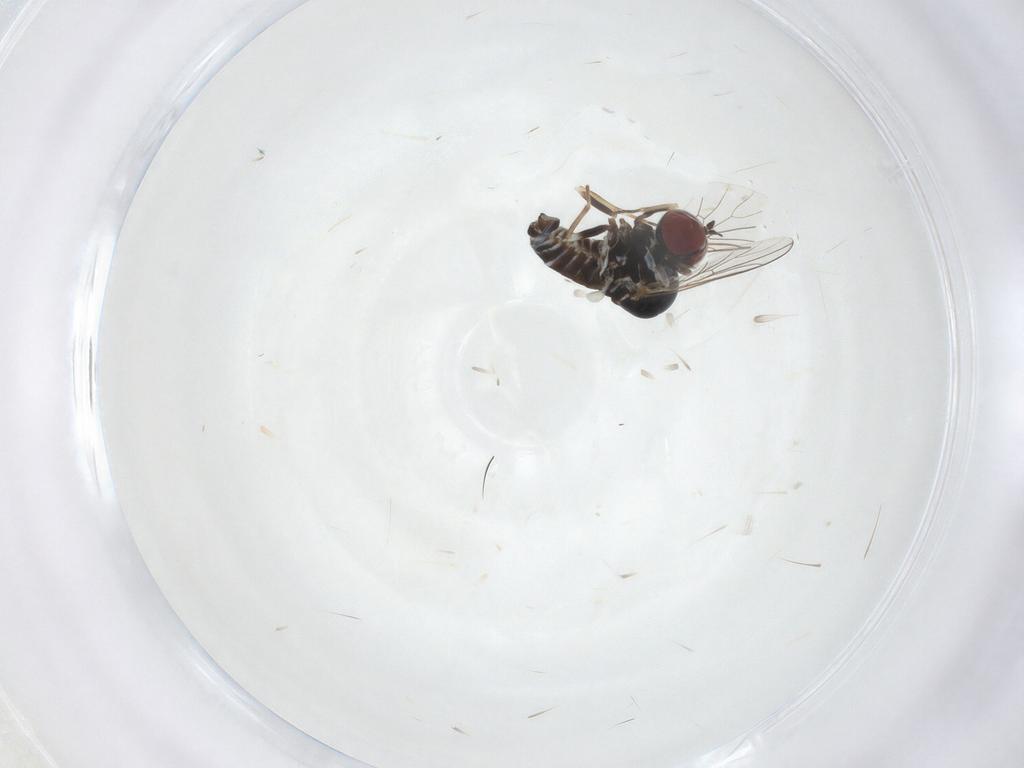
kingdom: Animalia
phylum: Arthropoda
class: Insecta
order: Diptera
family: Bombyliidae
